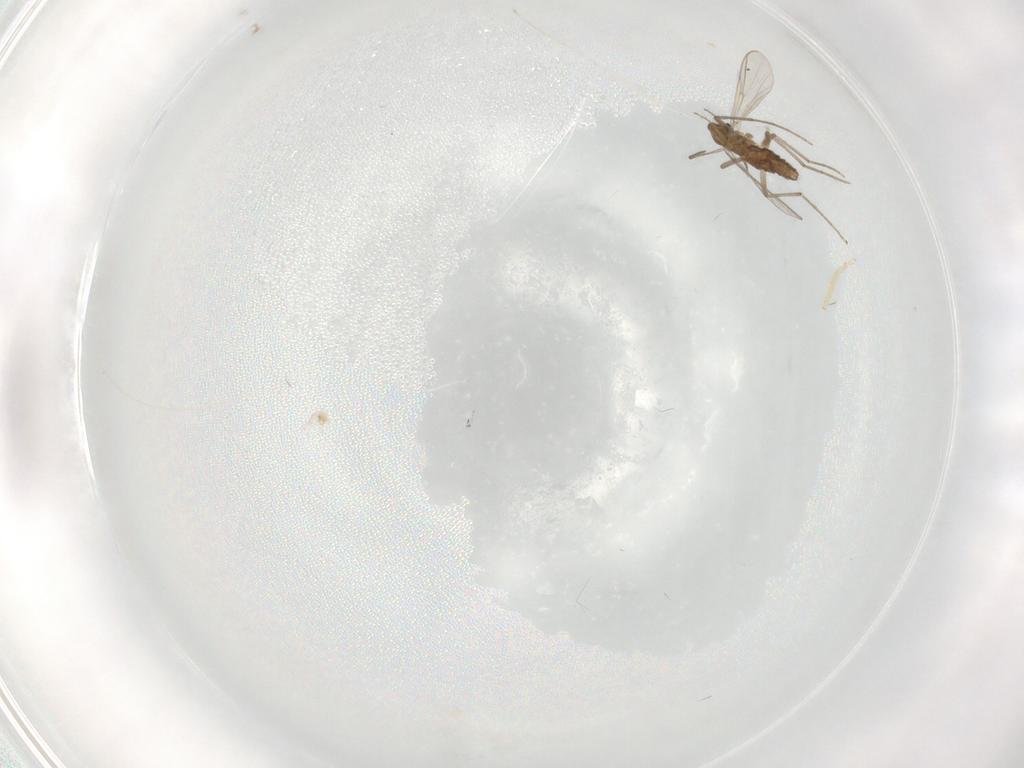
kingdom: Animalia
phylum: Arthropoda
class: Insecta
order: Diptera
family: Chironomidae
